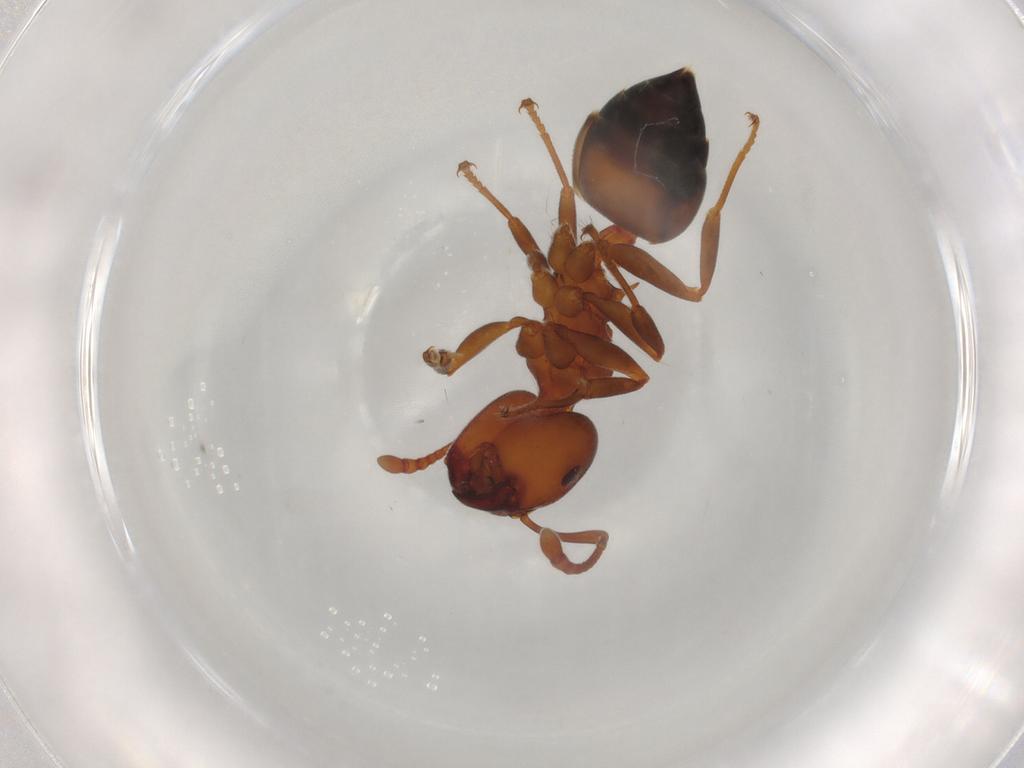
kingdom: Animalia
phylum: Arthropoda
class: Insecta
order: Hymenoptera
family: Formicidae
